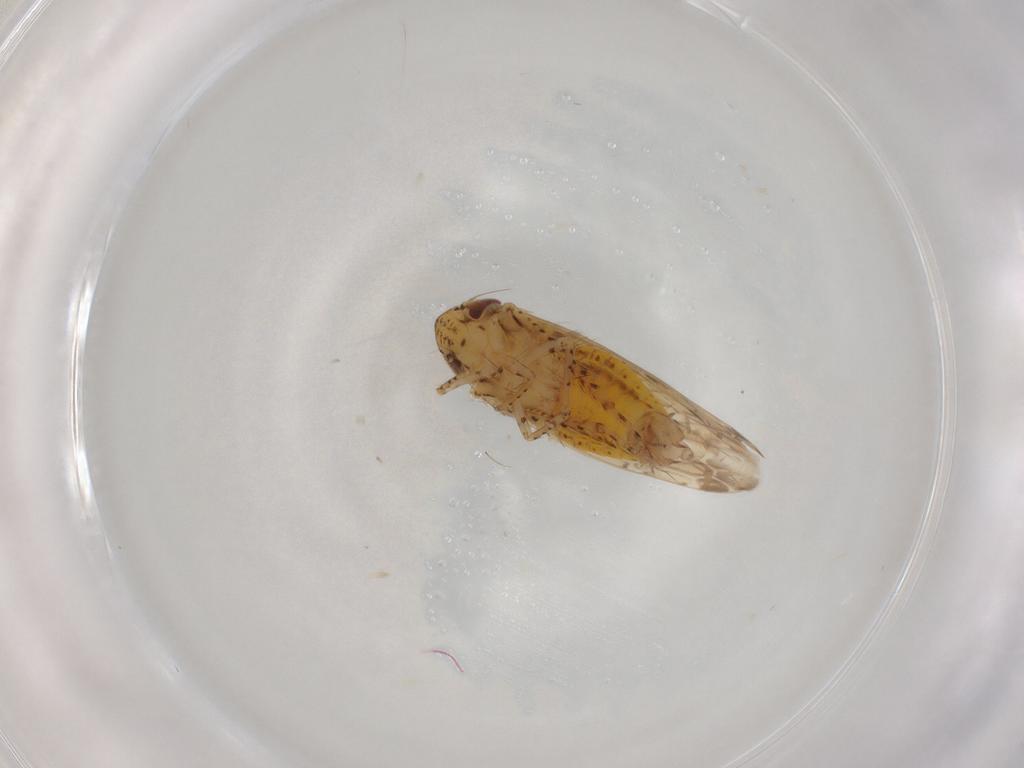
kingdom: Animalia
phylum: Arthropoda
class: Insecta
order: Hemiptera
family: Cicadellidae
